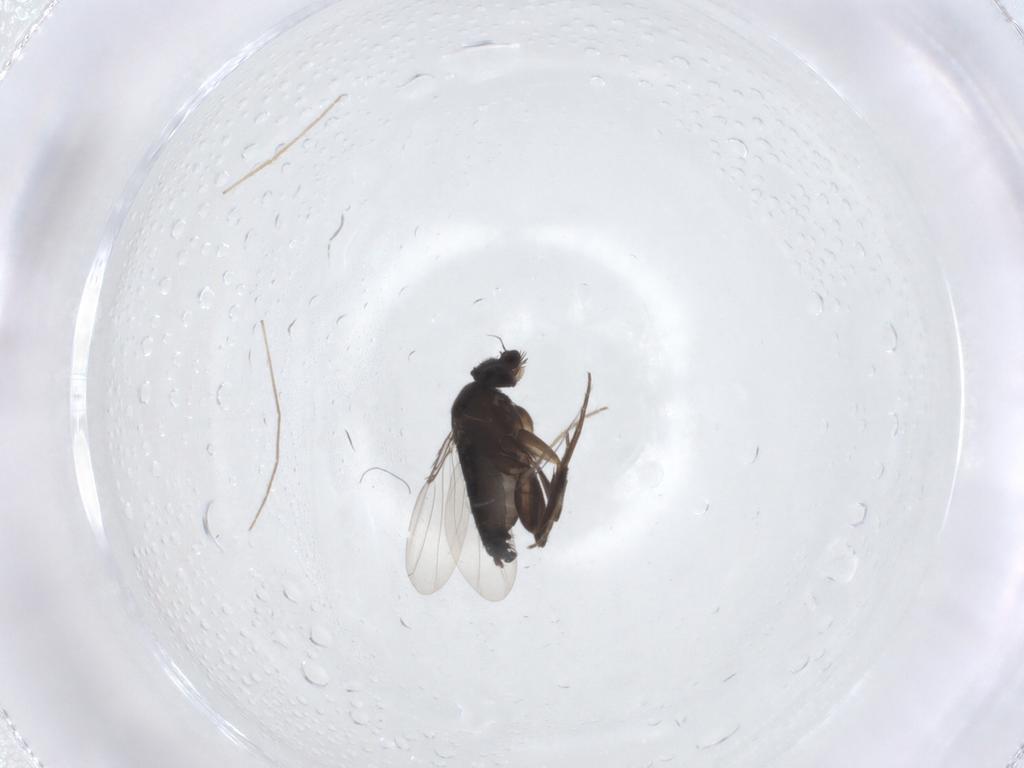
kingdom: Animalia
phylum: Arthropoda
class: Insecta
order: Diptera
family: Chironomidae
